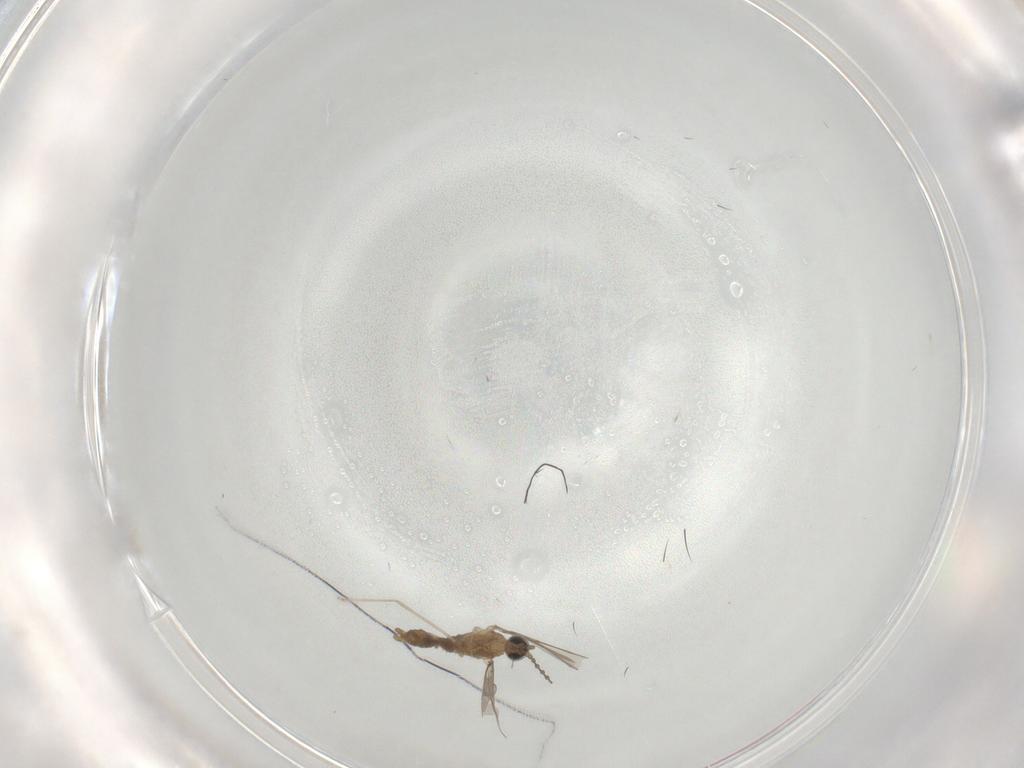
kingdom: Animalia
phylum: Arthropoda
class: Insecta
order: Diptera
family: Cecidomyiidae
